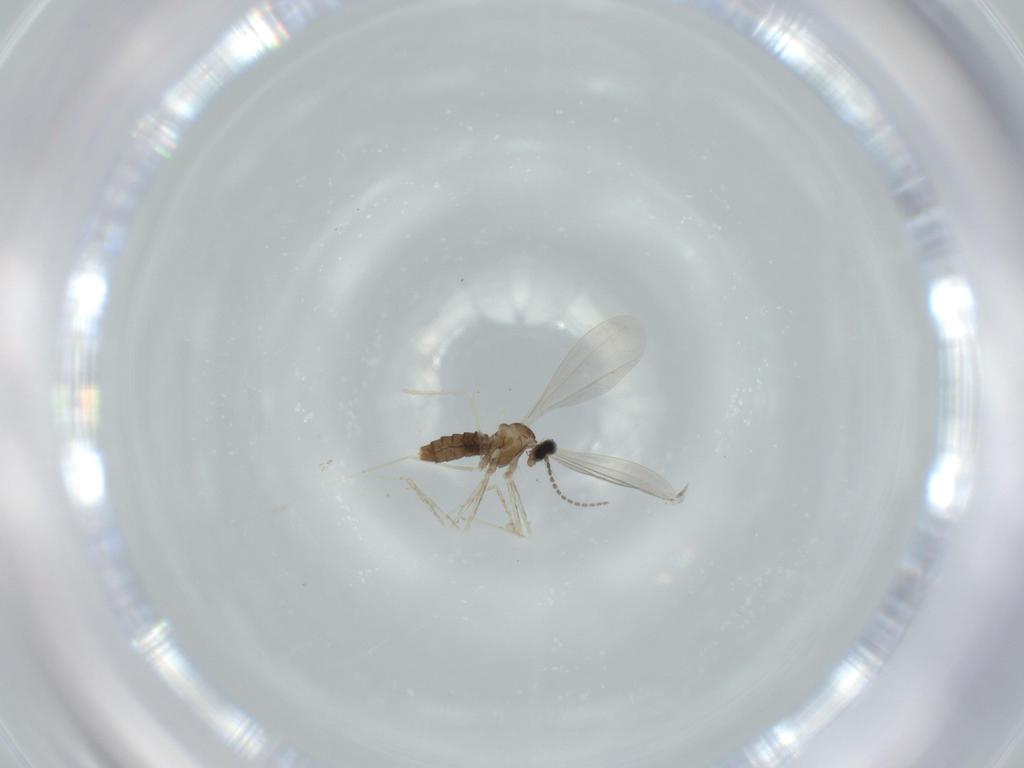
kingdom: Animalia
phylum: Arthropoda
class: Insecta
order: Diptera
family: Cecidomyiidae
